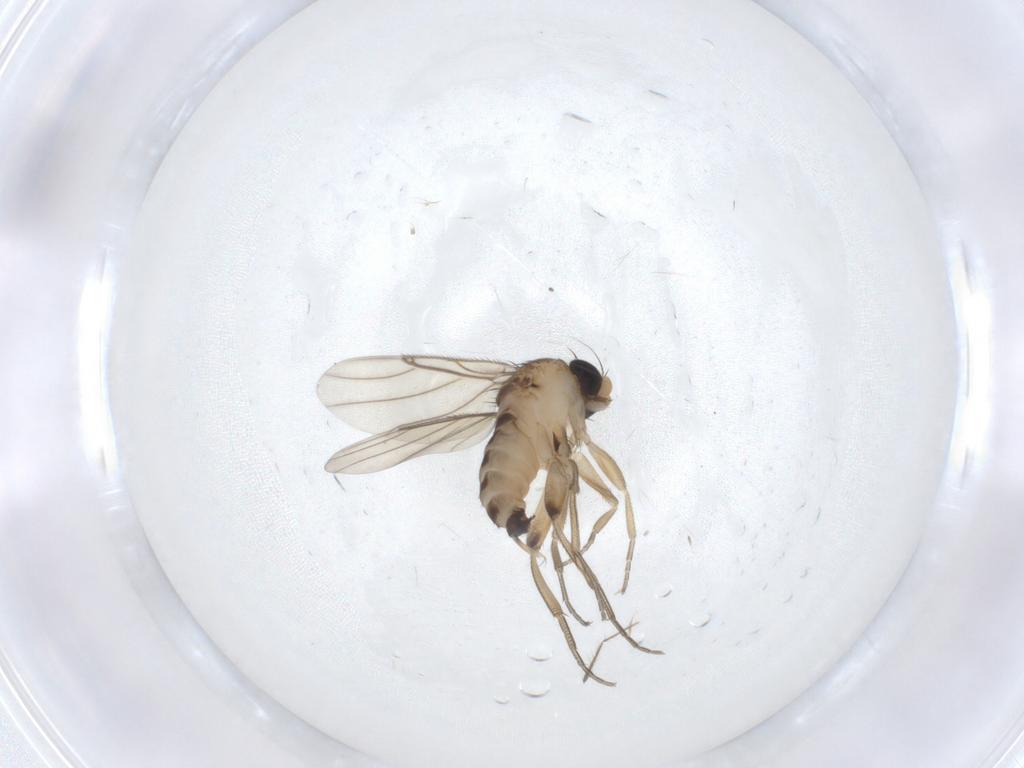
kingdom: Animalia
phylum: Arthropoda
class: Insecta
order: Diptera
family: Phoridae
